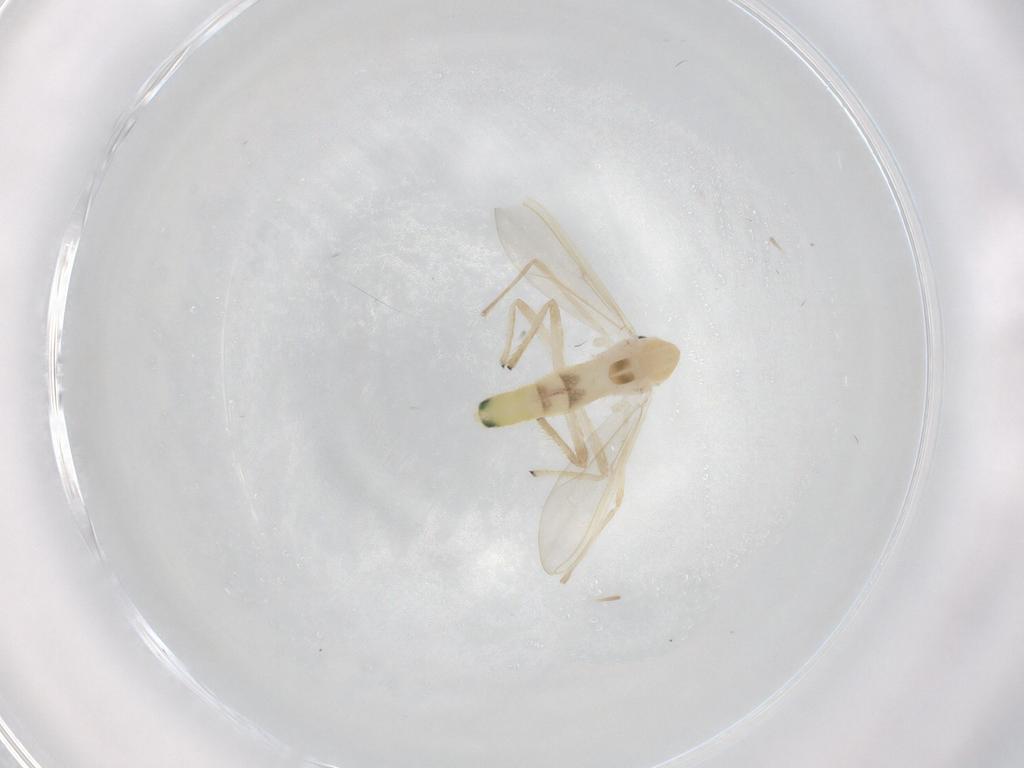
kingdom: Animalia
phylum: Arthropoda
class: Insecta
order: Diptera
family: Chironomidae
